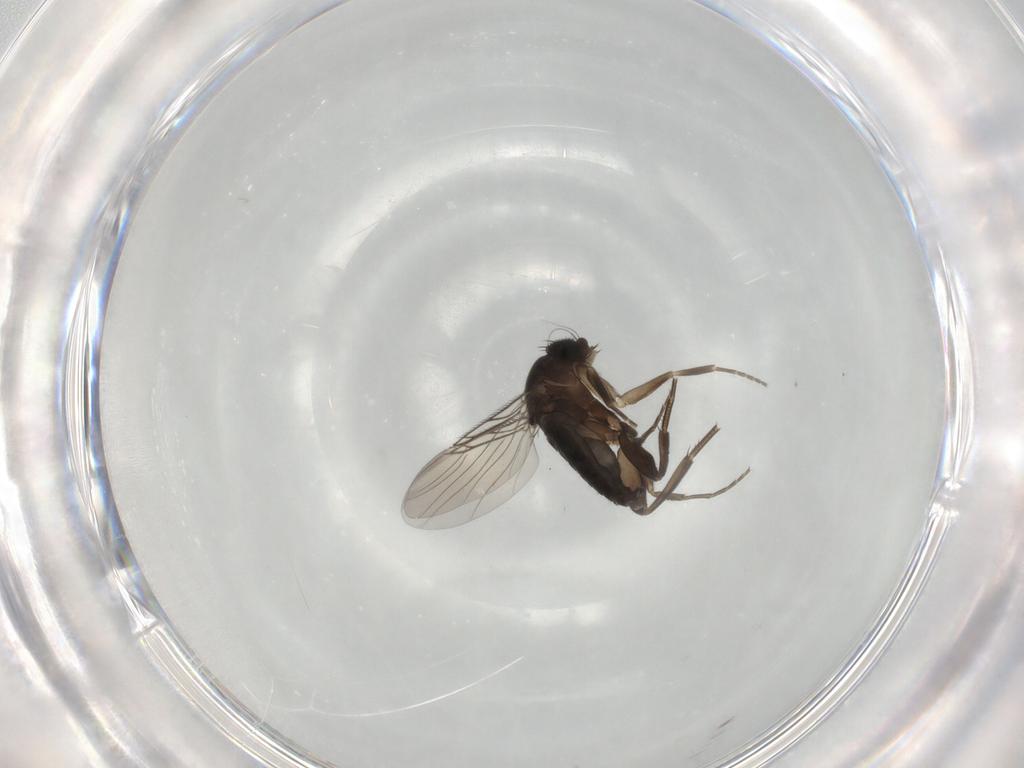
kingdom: Animalia
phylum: Arthropoda
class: Insecta
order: Diptera
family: Phoridae
